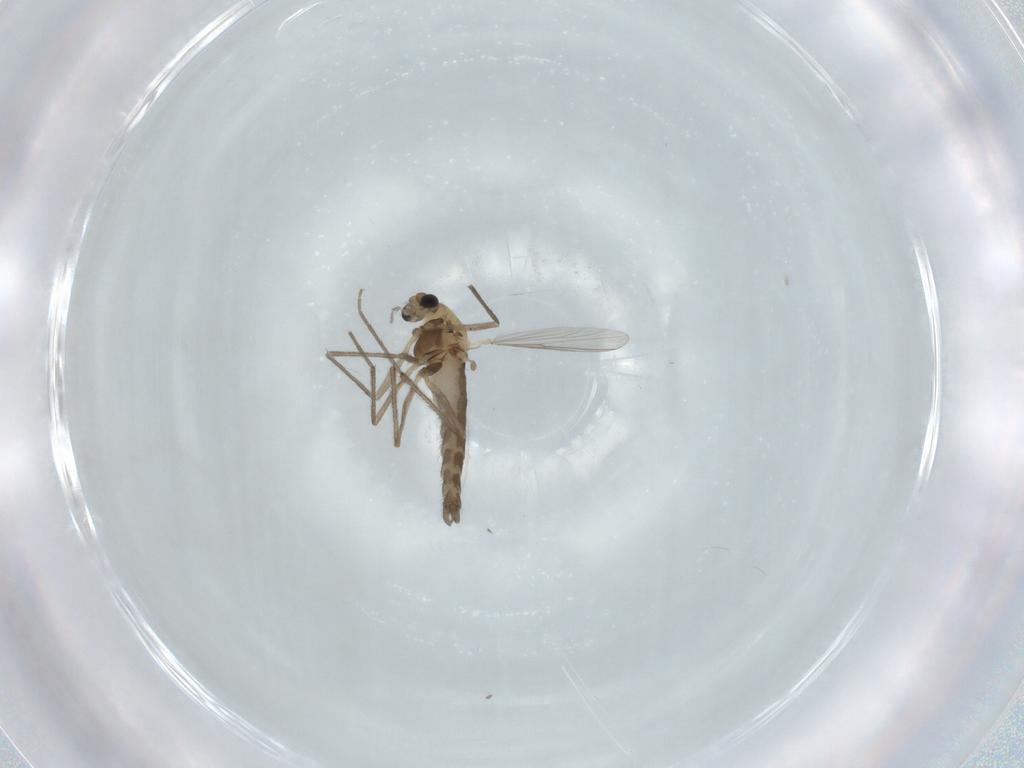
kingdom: Animalia
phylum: Arthropoda
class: Insecta
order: Diptera
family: Chironomidae
